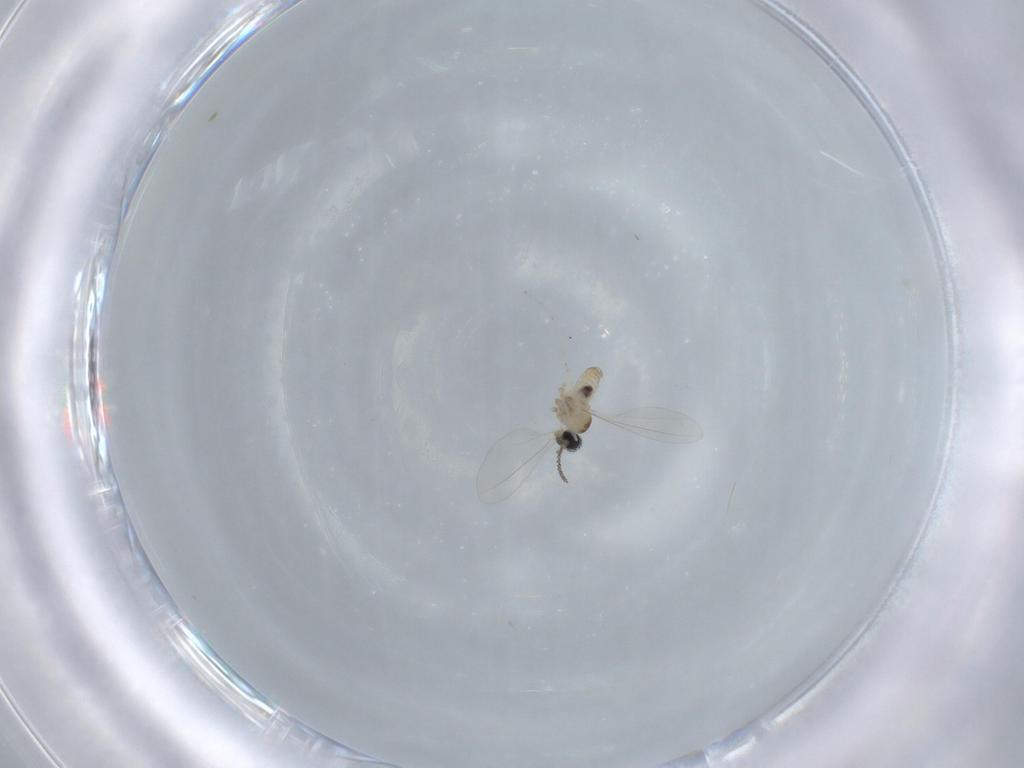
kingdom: Animalia
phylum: Arthropoda
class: Insecta
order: Diptera
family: Cecidomyiidae
